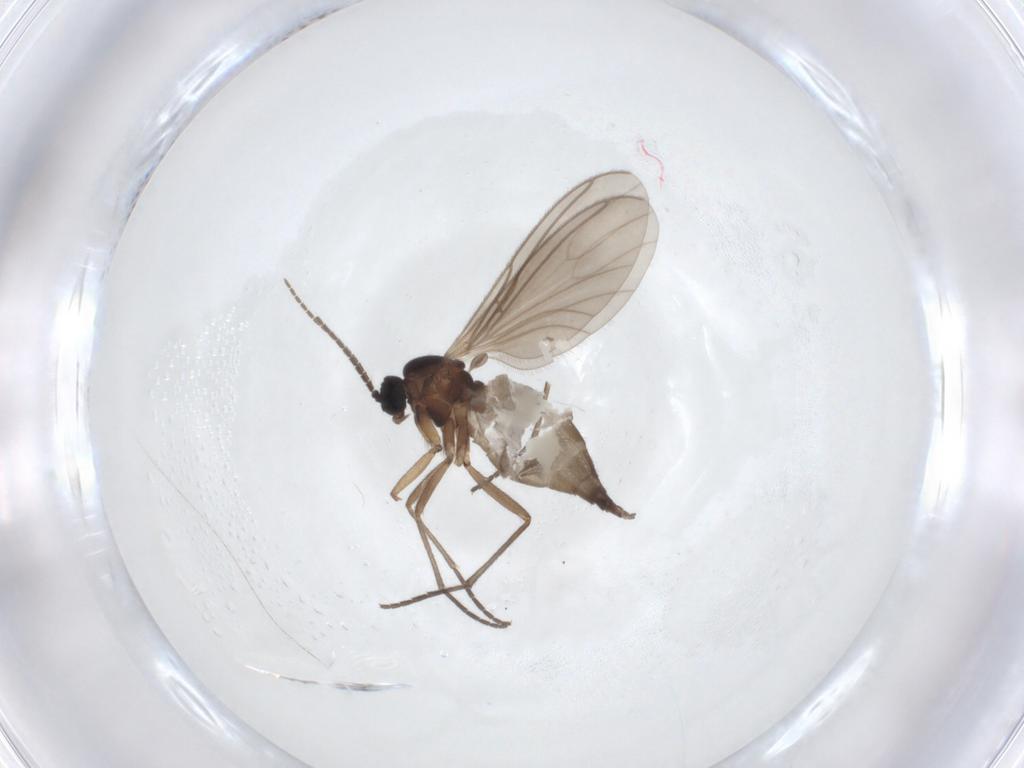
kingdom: Animalia
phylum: Arthropoda
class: Insecta
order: Diptera
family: Sciaridae
